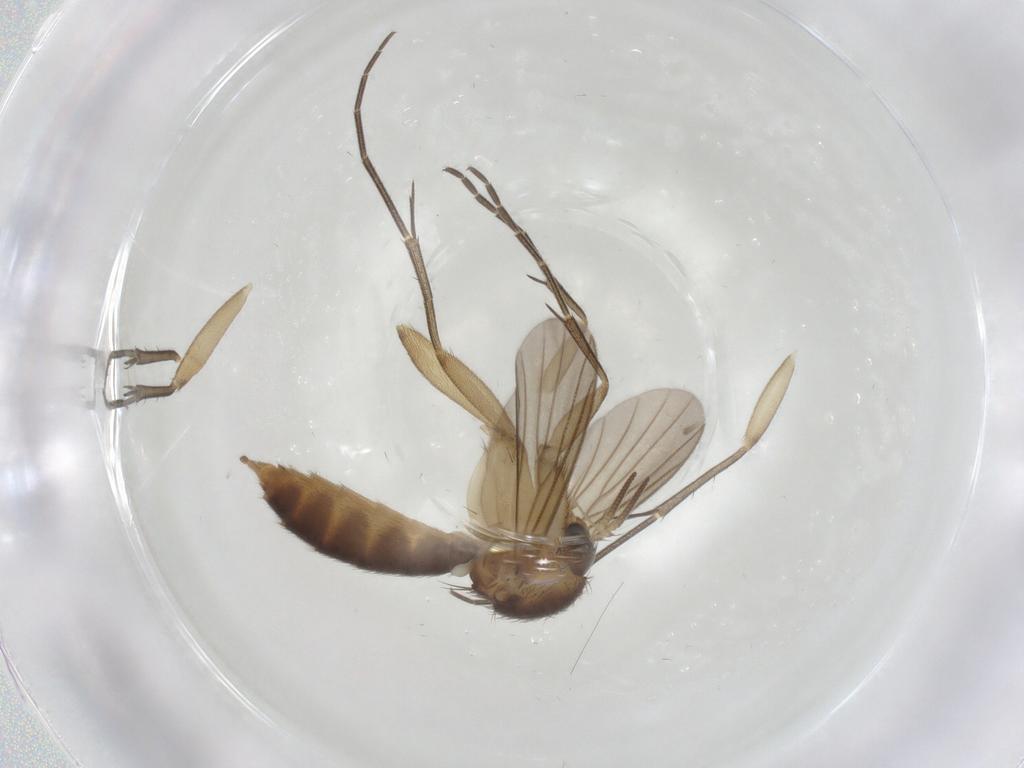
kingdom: Animalia
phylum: Arthropoda
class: Insecta
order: Diptera
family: Mycetophilidae
